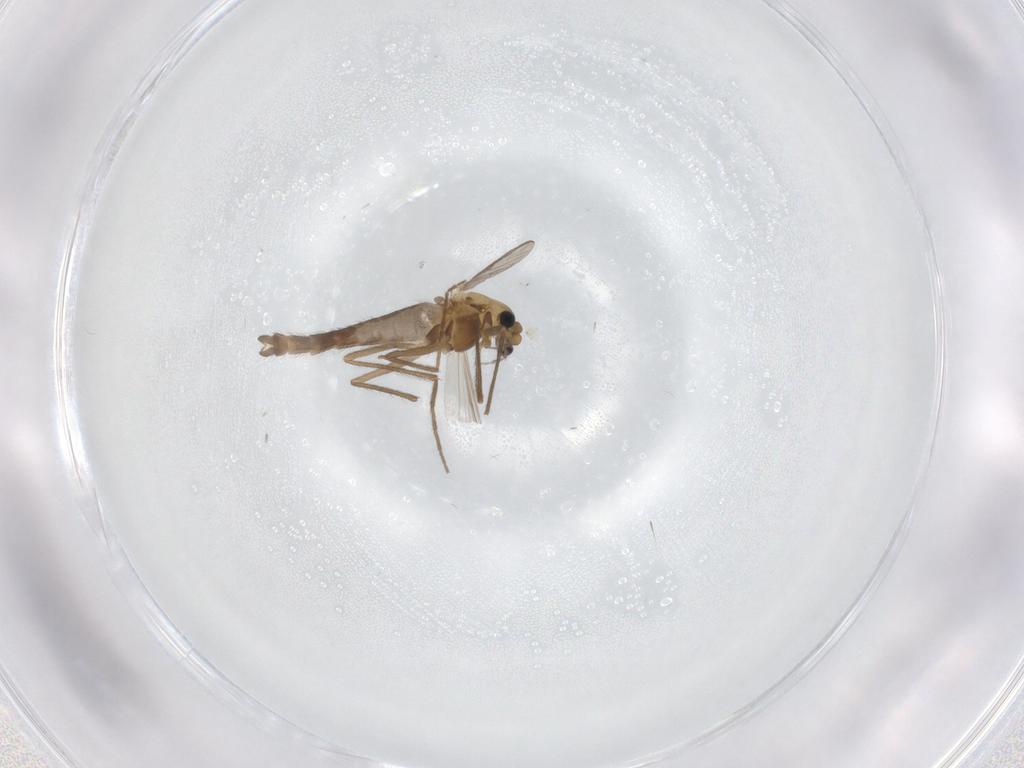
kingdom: Animalia
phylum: Arthropoda
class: Insecta
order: Diptera
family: Chironomidae
